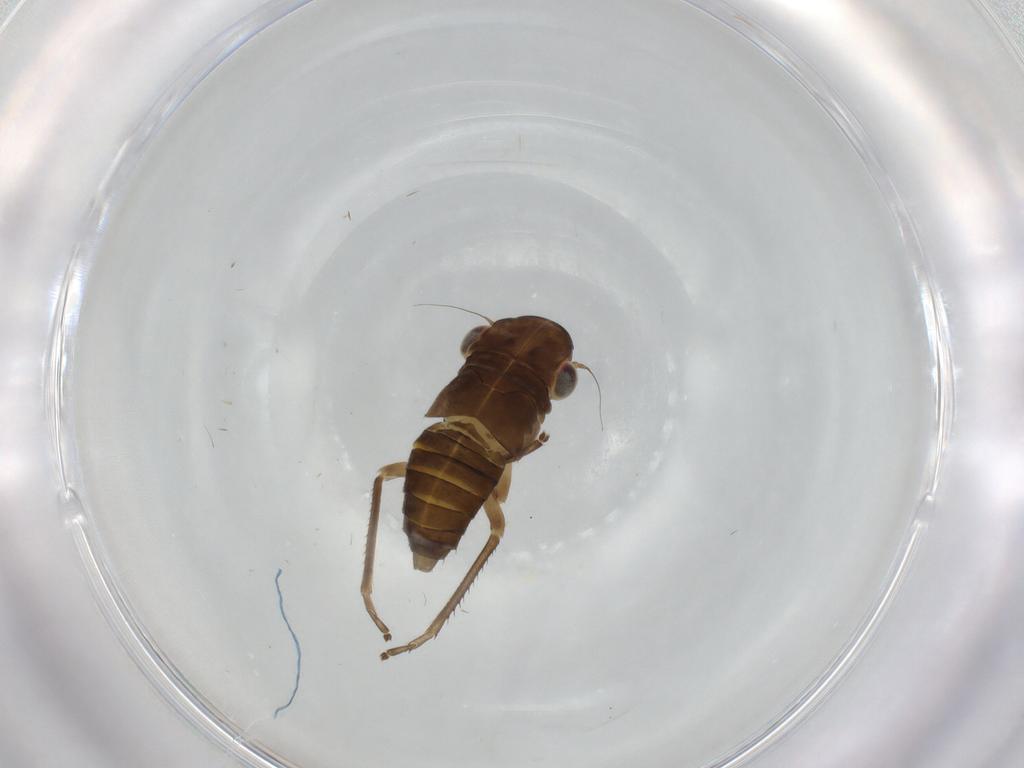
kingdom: Animalia
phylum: Arthropoda
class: Insecta
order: Hemiptera
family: Cicadellidae
